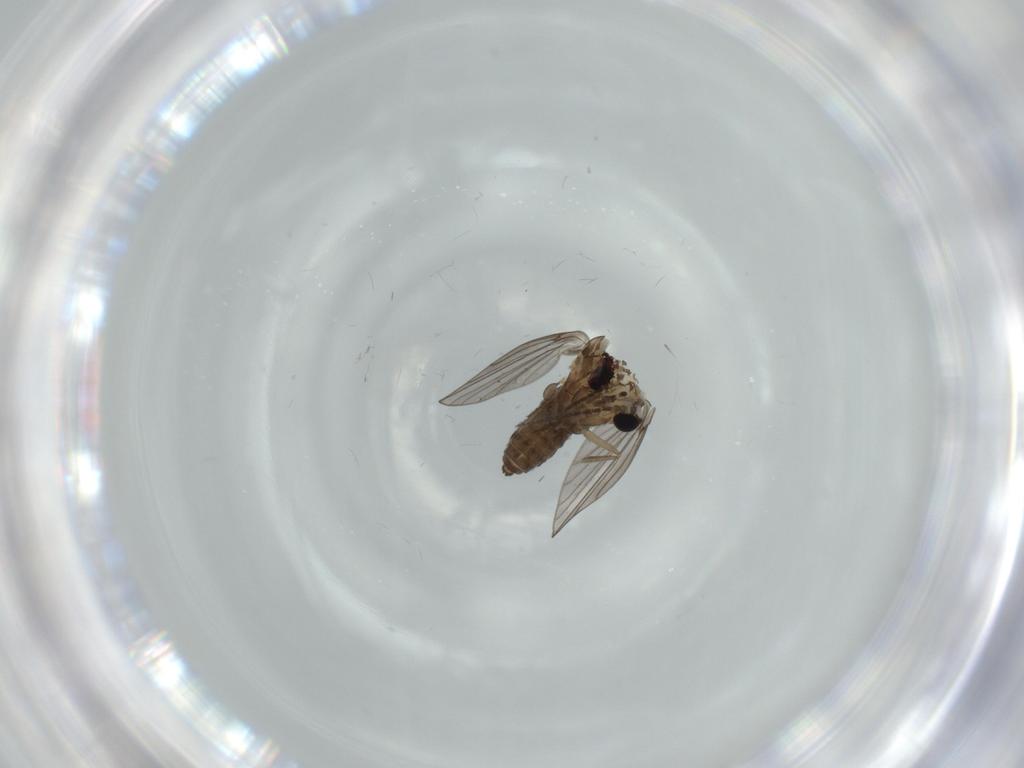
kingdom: Animalia
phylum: Arthropoda
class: Insecta
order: Diptera
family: Psychodidae
